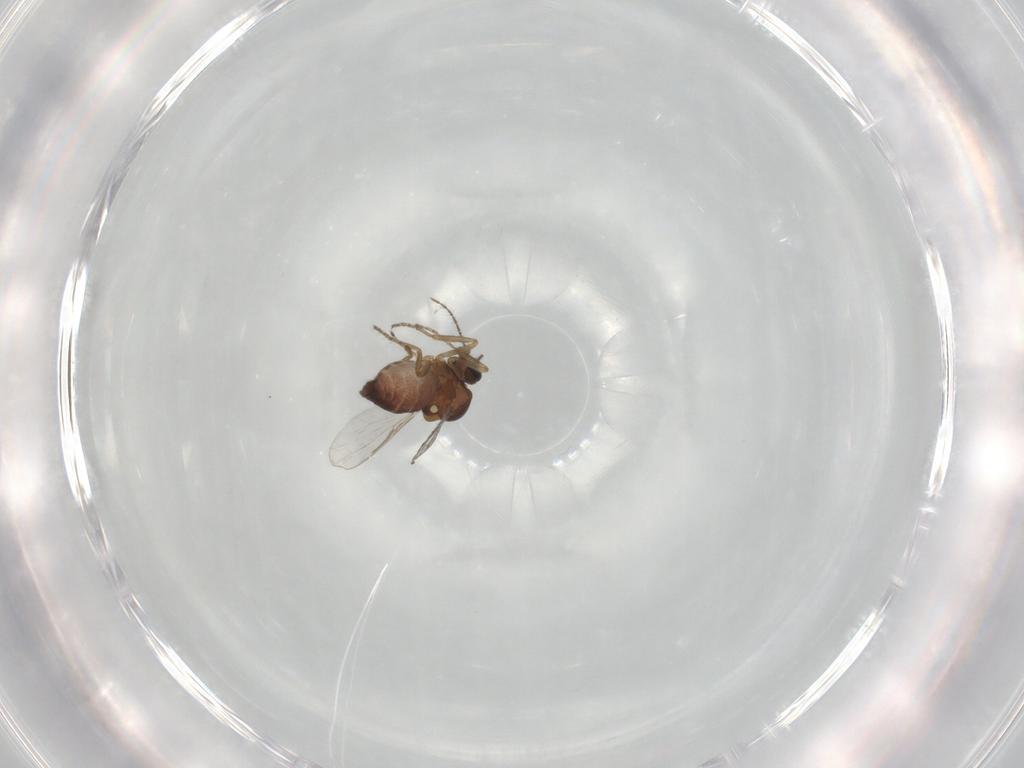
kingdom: Animalia
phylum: Arthropoda
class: Insecta
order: Diptera
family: Ceratopogonidae
